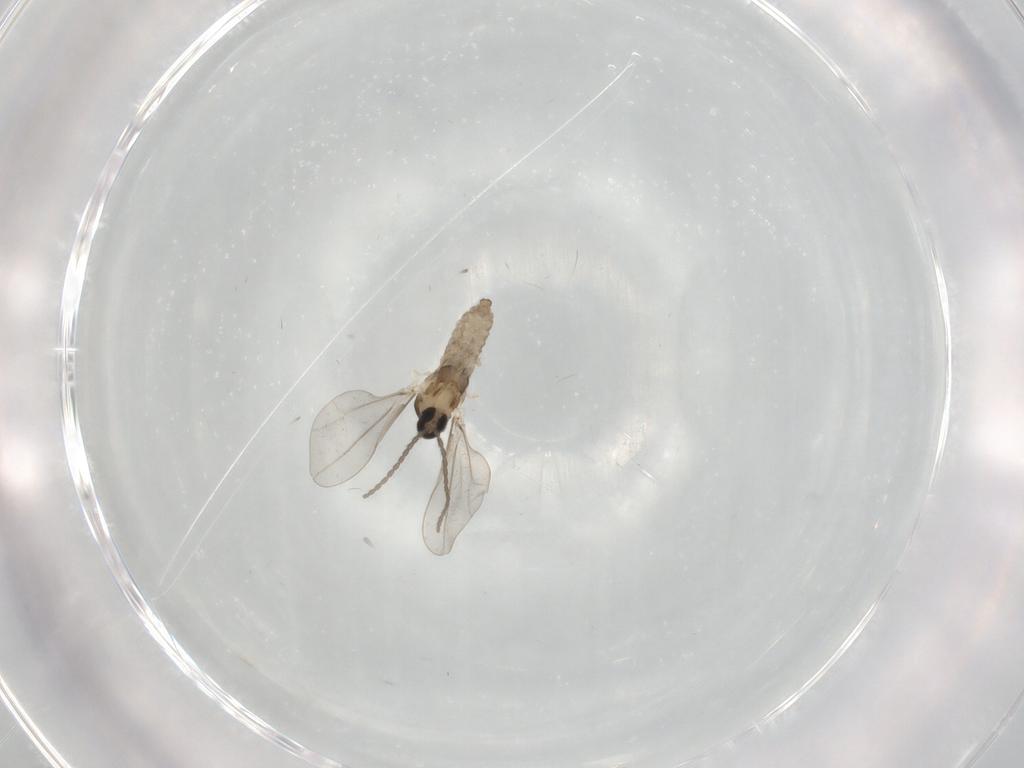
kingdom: Animalia
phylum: Arthropoda
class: Insecta
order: Diptera
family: Cecidomyiidae
